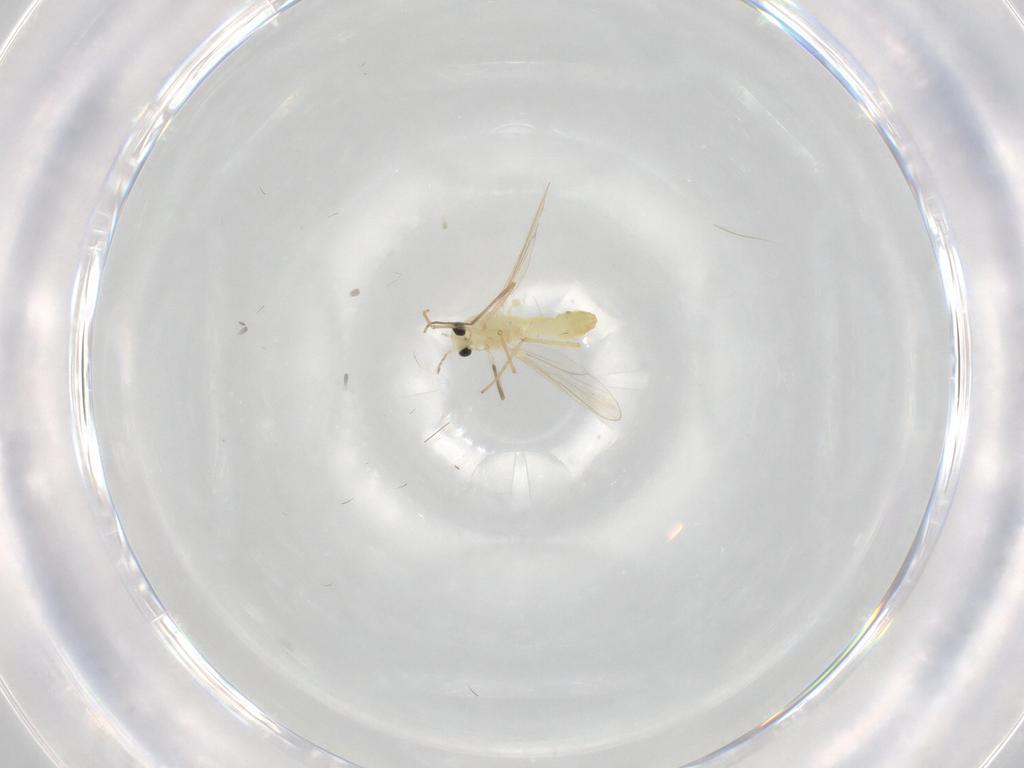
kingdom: Animalia
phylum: Arthropoda
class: Insecta
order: Diptera
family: Chironomidae
